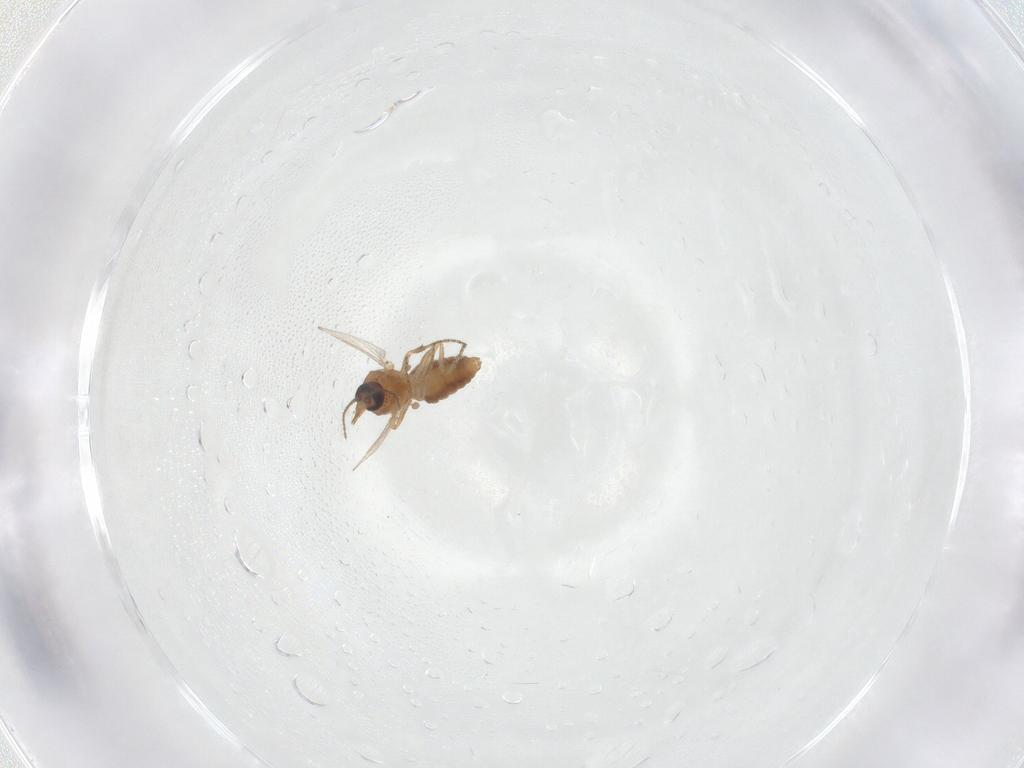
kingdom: Animalia
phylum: Arthropoda
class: Insecta
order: Diptera
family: Ceratopogonidae
